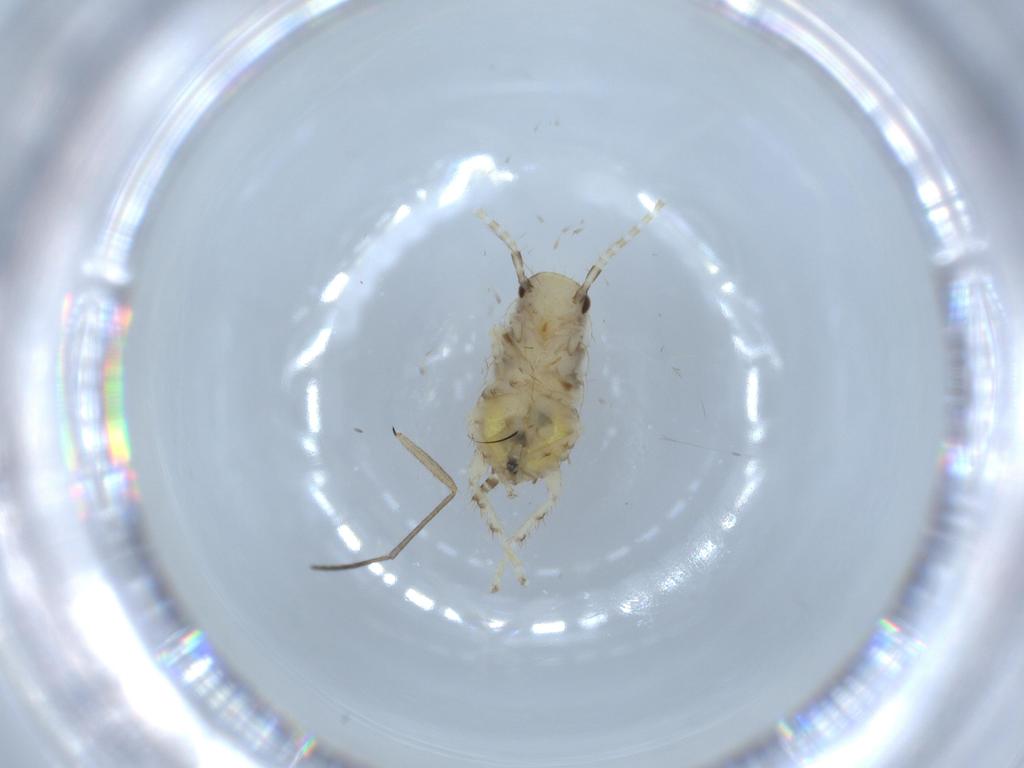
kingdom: Animalia
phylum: Arthropoda
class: Insecta
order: Blattodea
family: Ectobiidae
